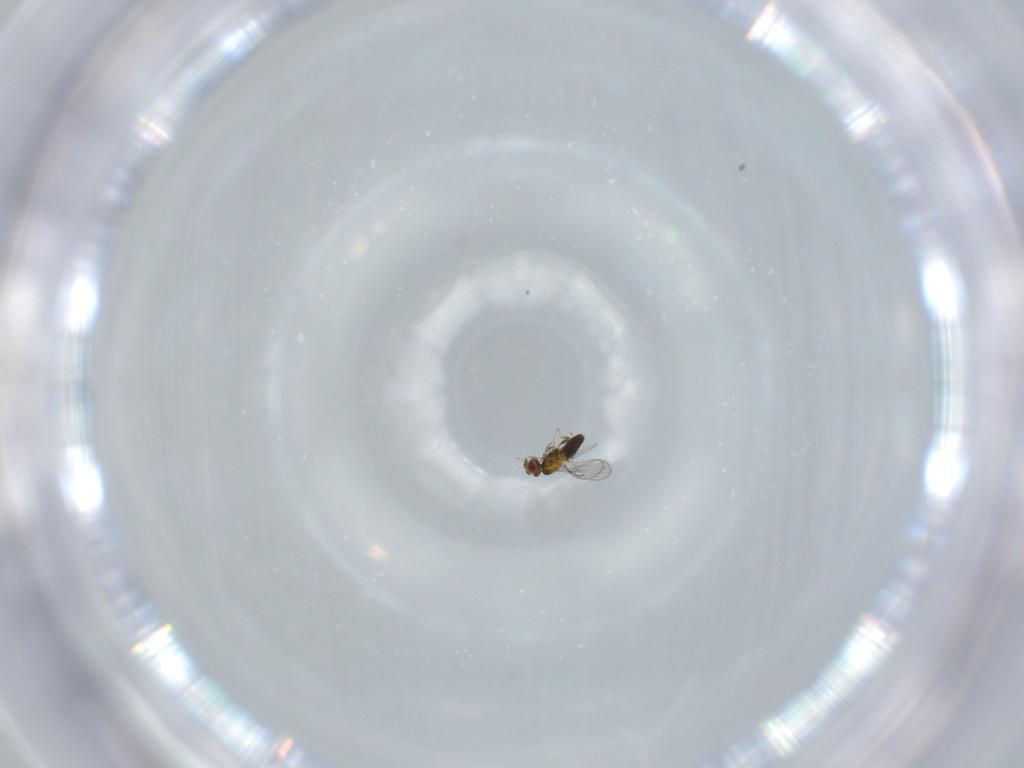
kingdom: Animalia
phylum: Arthropoda
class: Insecta
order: Hymenoptera
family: Trichogrammatidae
